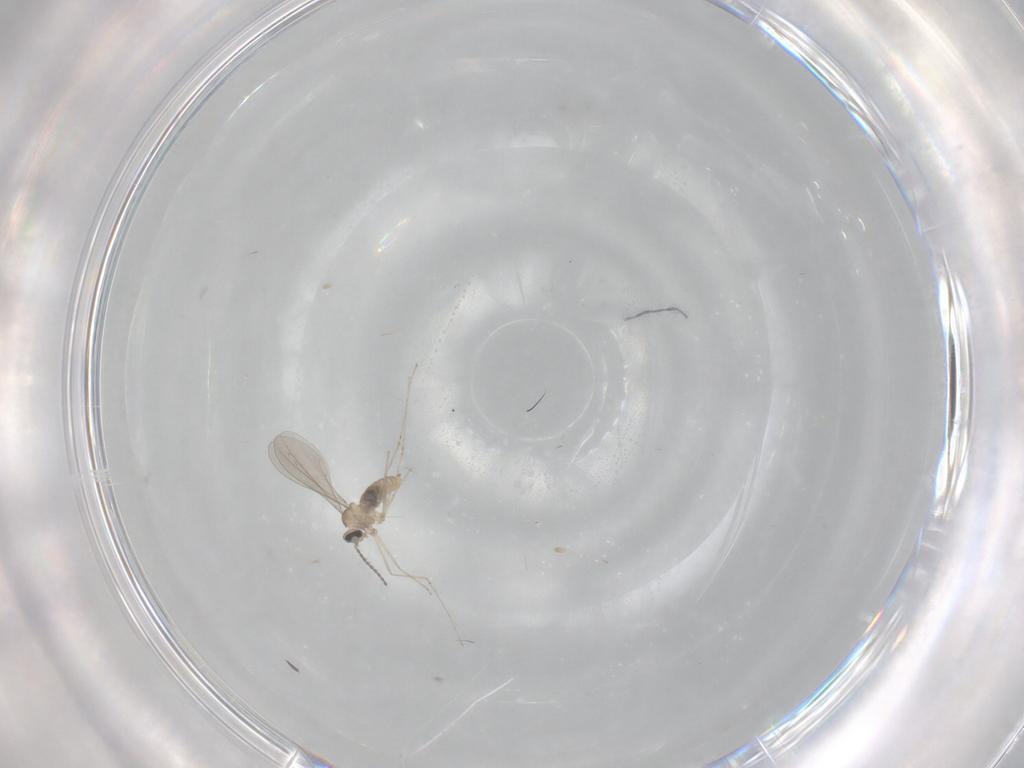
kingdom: Animalia
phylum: Arthropoda
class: Insecta
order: Diptera
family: Cecidomyiidae
